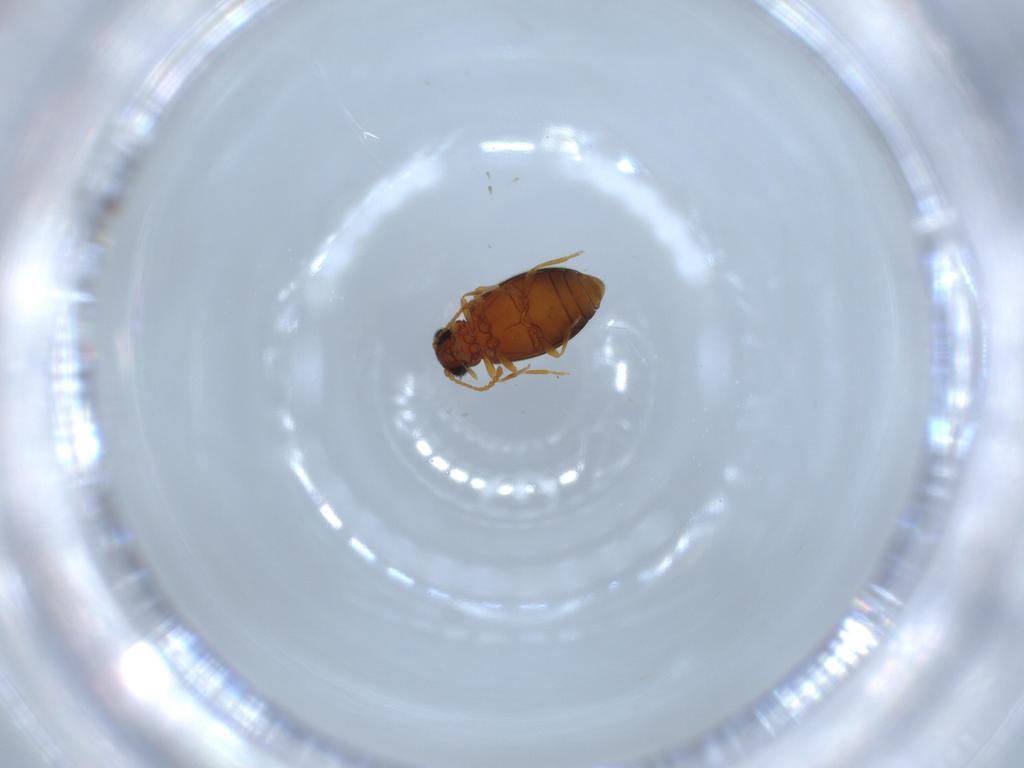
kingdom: Animalia
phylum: Arthropoda
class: Insecta
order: Coleoptera
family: Aderidae
